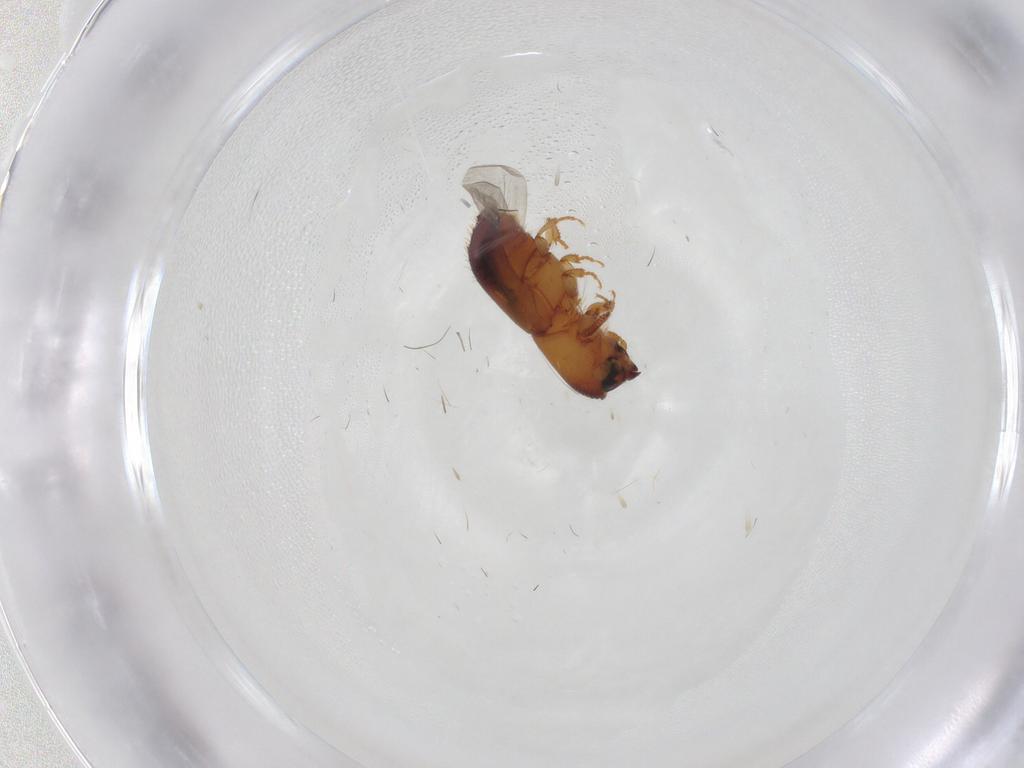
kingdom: Animalia
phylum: Arthropoda
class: Insecta
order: Coleoptera
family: Curculionidae
